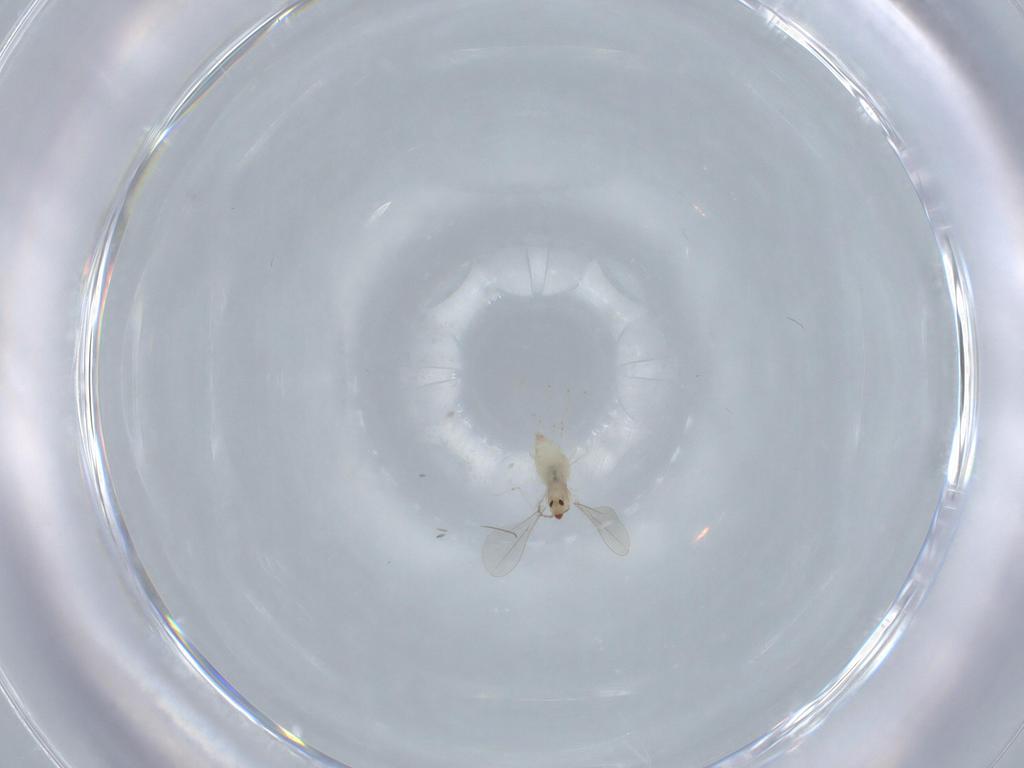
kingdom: Animalia
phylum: Arthropoda
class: Insecta
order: Diptera
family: Cecidomyiidae
